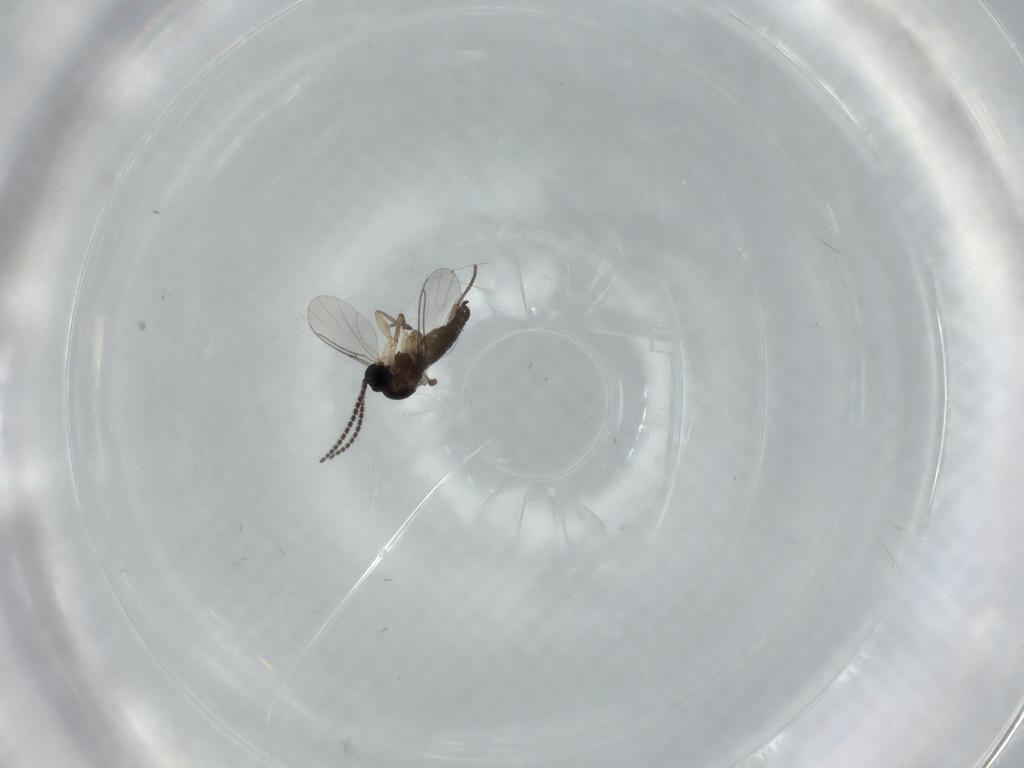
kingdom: Animalia
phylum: Arthropoda
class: Insecta
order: Diptera
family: Sciaridae
